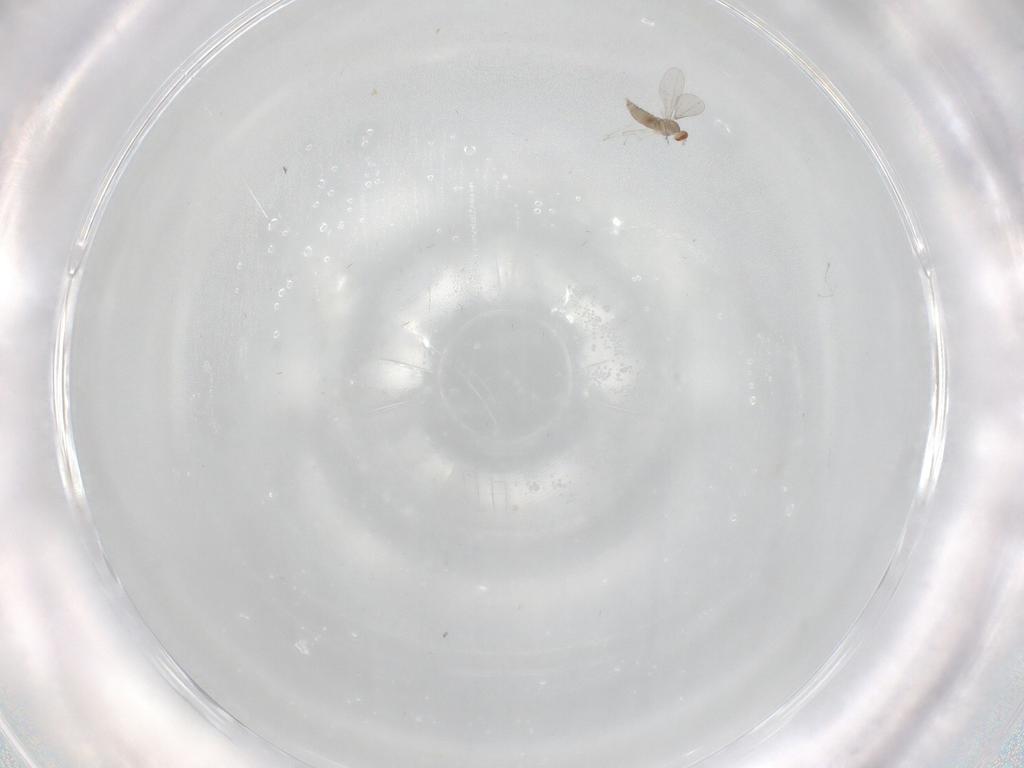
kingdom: Animalia
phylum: Arthropoda
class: Insecta
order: Diptera
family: Cecidomyiidae
